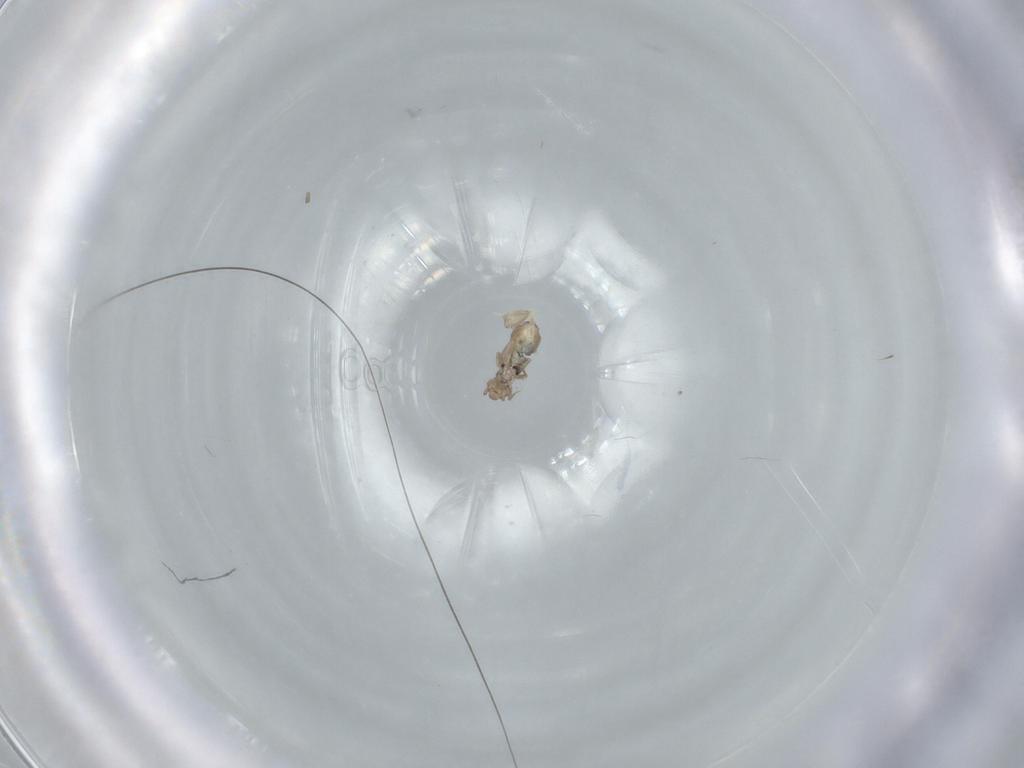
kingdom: Animalia
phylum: Arthropoda
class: Insecta
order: Psocodea
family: Liposcelididae
